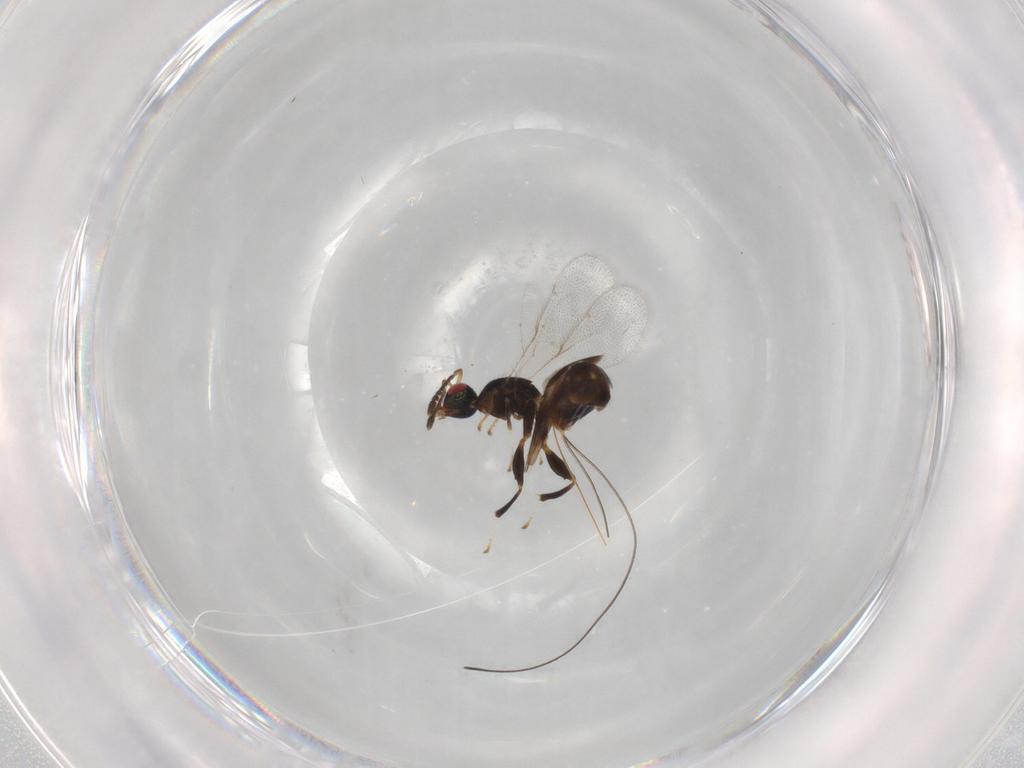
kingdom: Animalia
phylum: Arthropoda
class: Insecta
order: Hymenoptera
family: Torymidae
